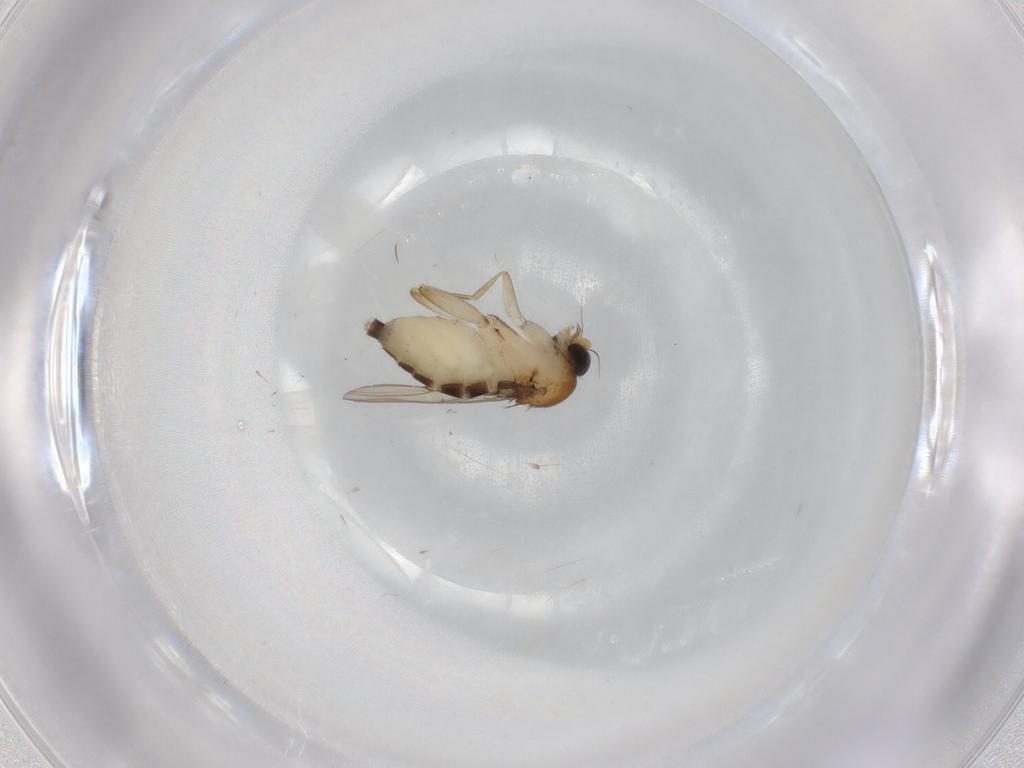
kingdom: Animalia
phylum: Arthropoda
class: Insecta
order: Diptera
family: Phoridae
